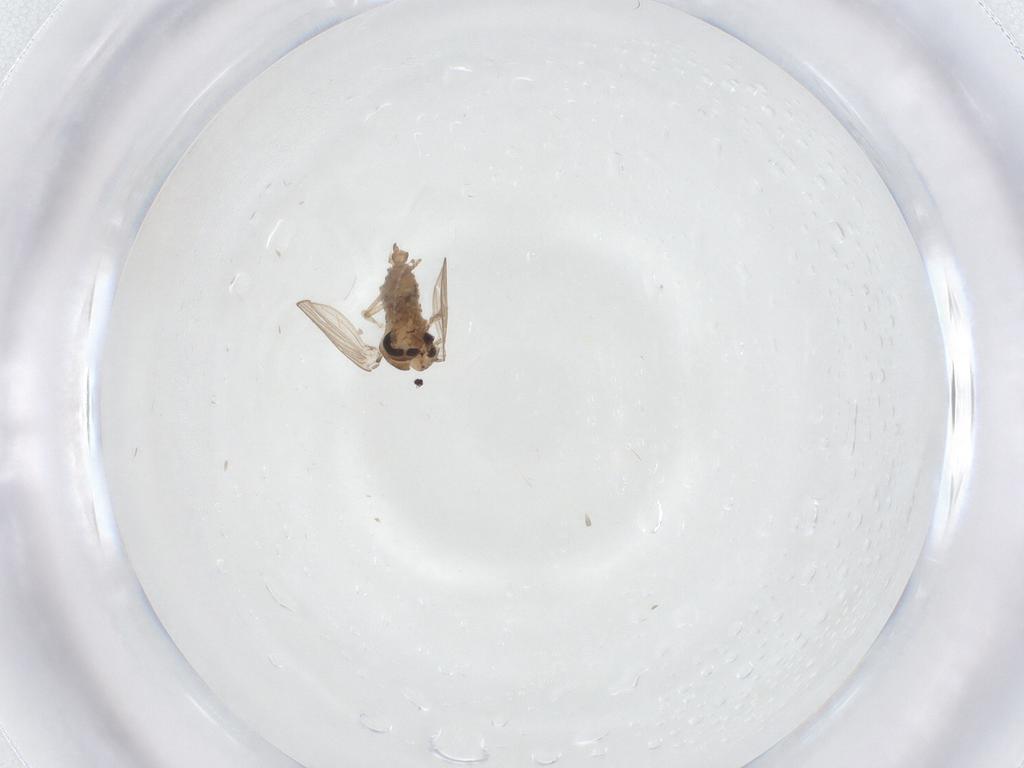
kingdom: Animalia
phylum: Arthropoda
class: Insecta
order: Diptera
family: Psychodidae
